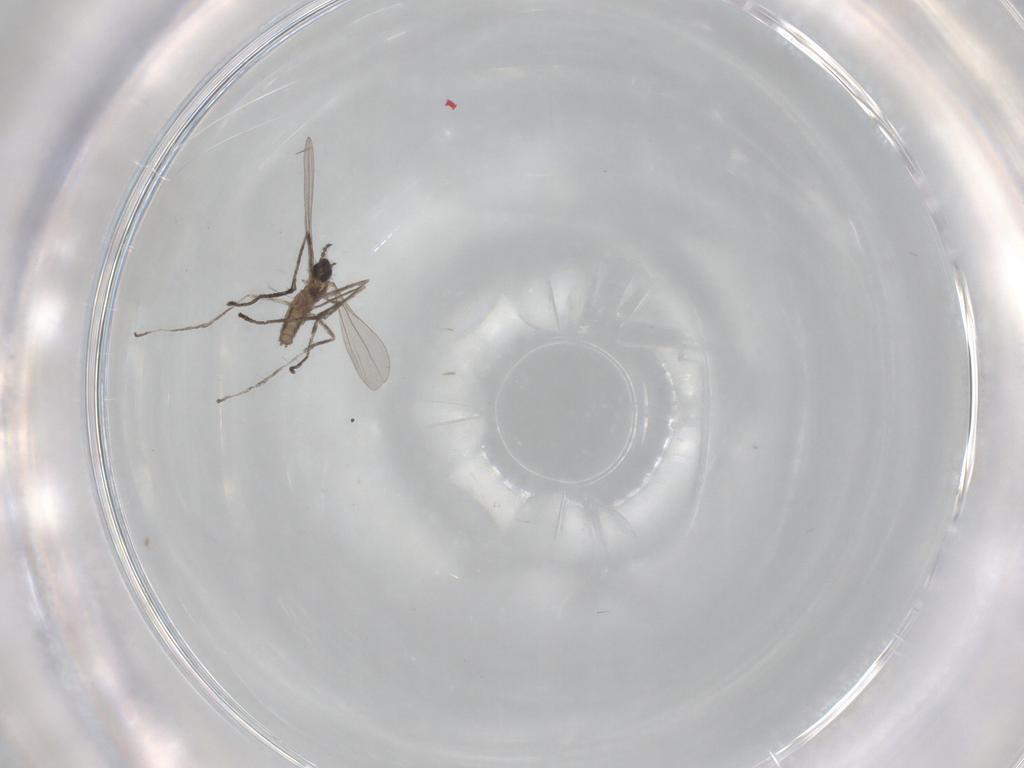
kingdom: Animalia
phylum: Arthropoda
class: Insecta
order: Diptera
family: Cecidomyiidae
